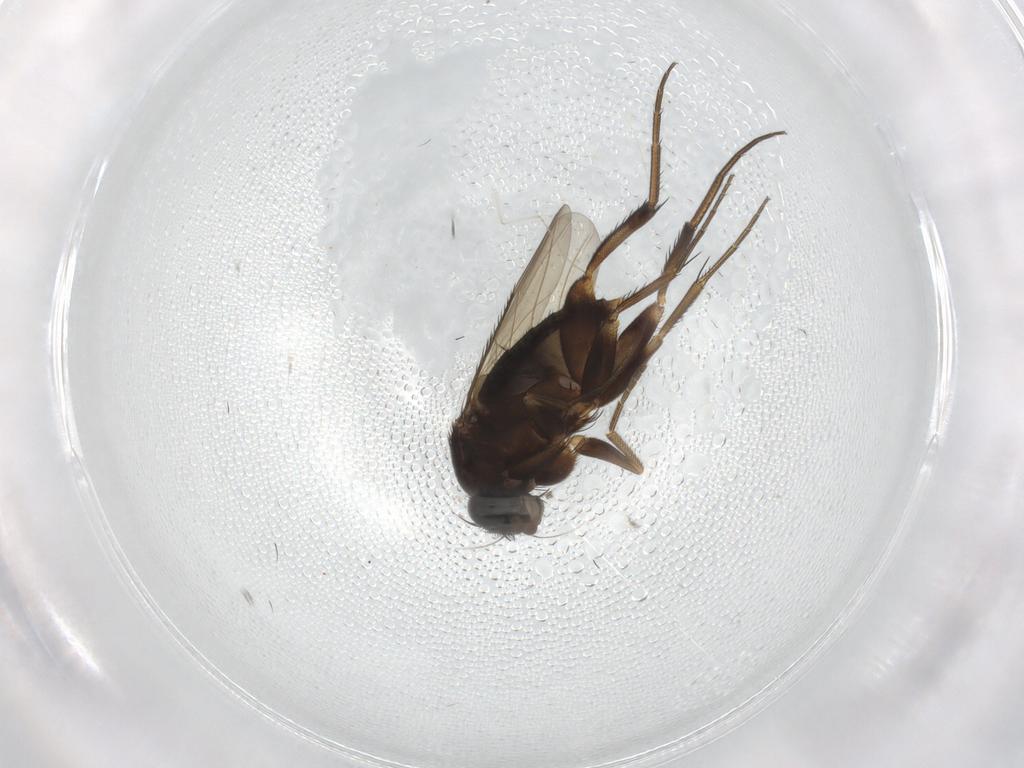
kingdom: Animalia
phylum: Arthropoda
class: Insecta
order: Diptera
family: Phoridae
